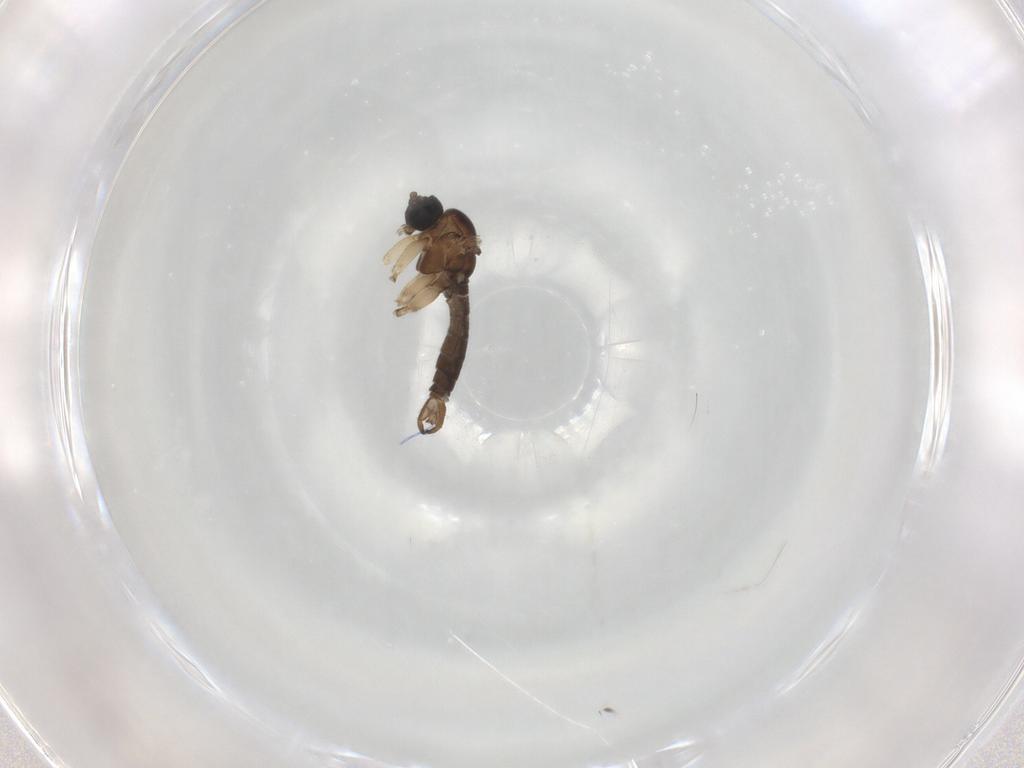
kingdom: Animalia
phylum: Arthropoda
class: Insecta
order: Diptera
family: Sciaridae
